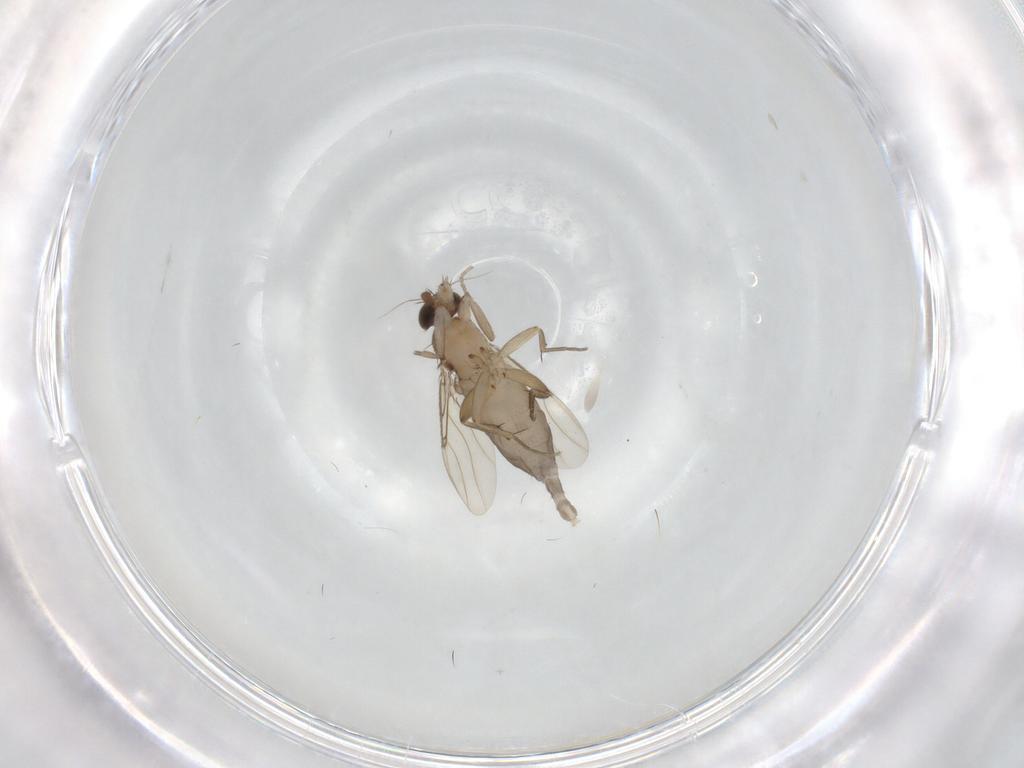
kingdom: Animalia
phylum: Arthropoda
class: Insecta
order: Diptera
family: Phoridae
